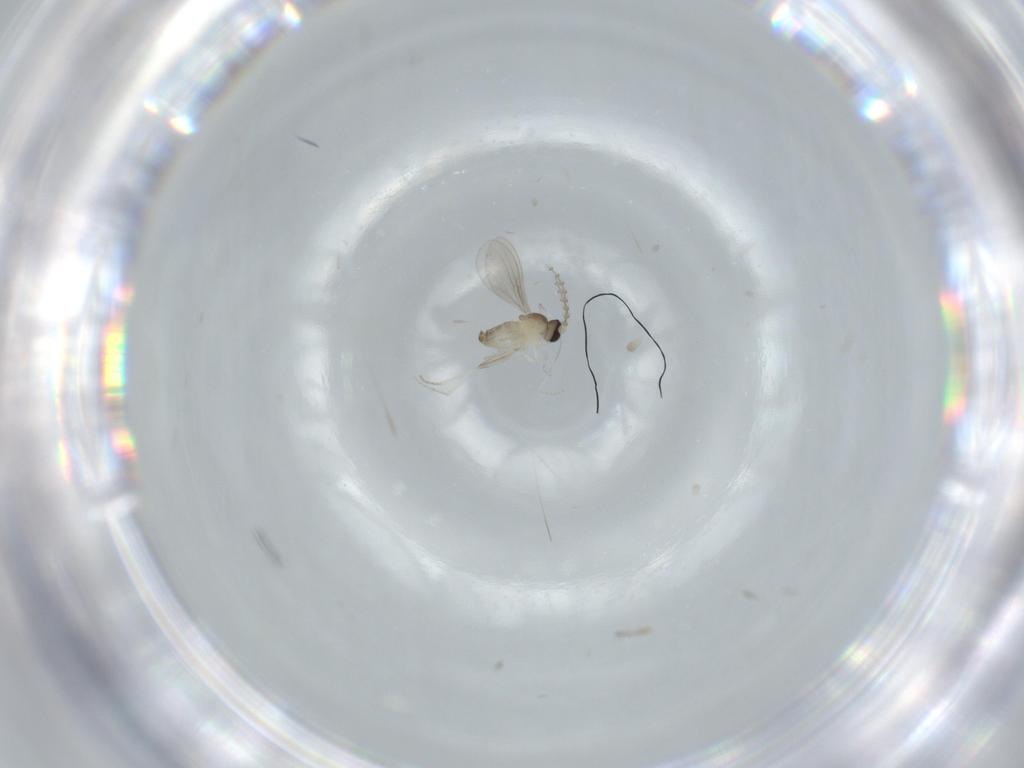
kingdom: Animalia
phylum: Arthropoda
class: Insecta
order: Diptera
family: Cecidomyiidae
